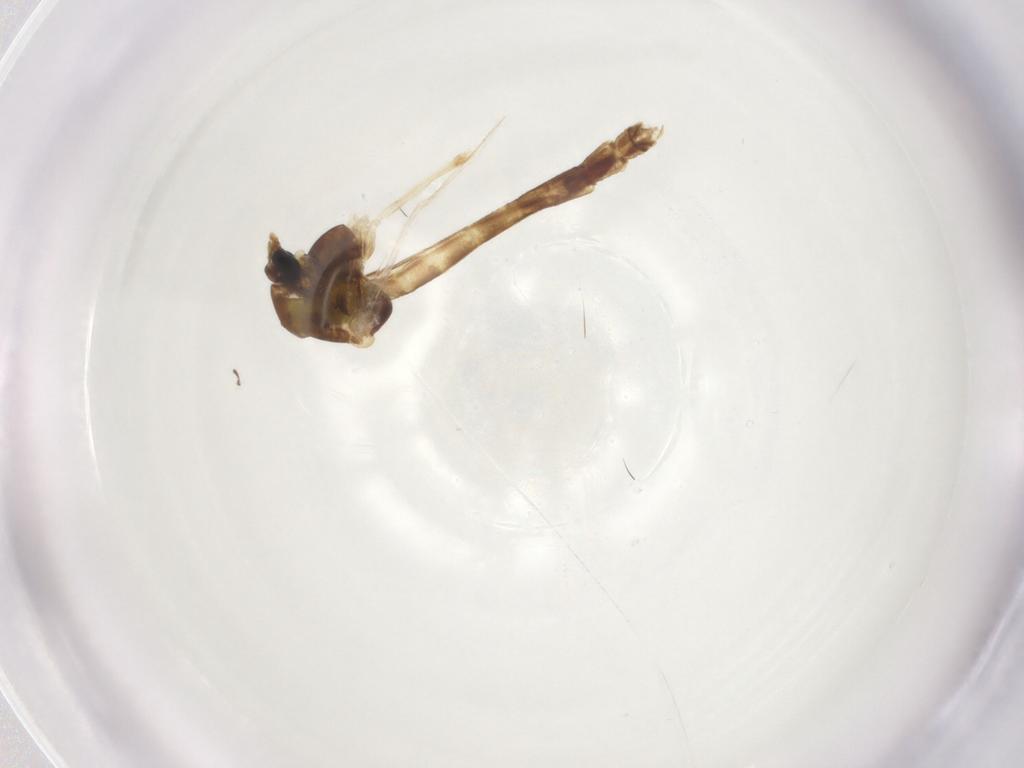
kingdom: Animalia
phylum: Arthropoda
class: Insecta
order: Diptera
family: Chironomidae
